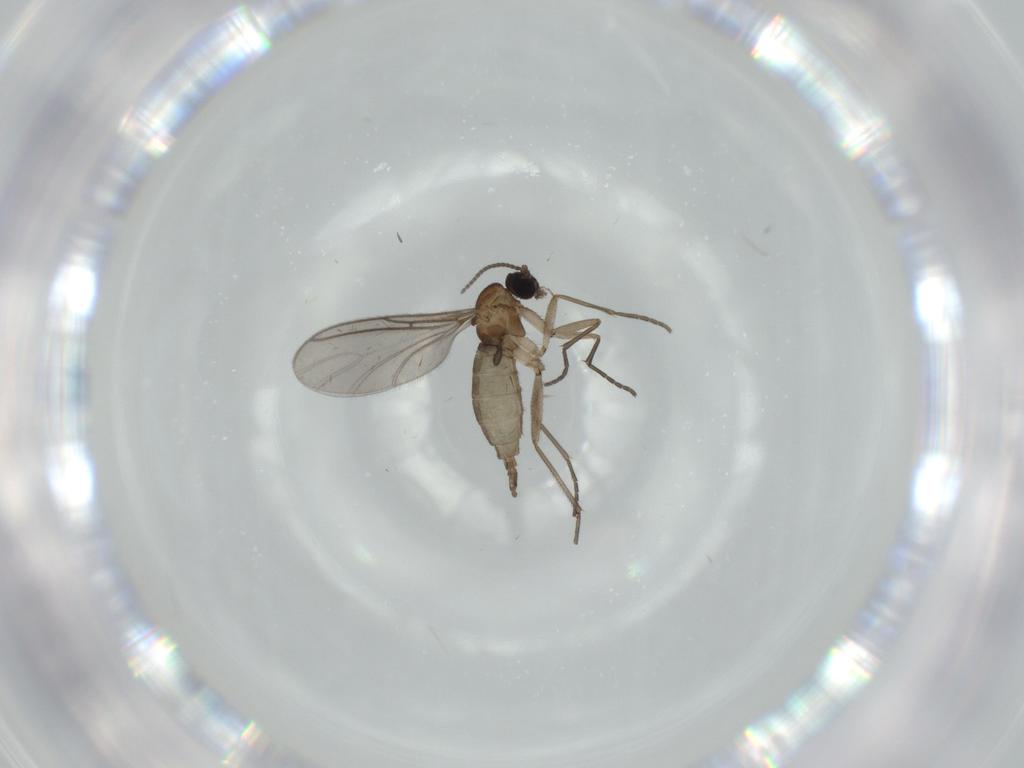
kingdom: Animalia
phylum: Arthropoda
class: Insecta
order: Diptera
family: Sciaridae
